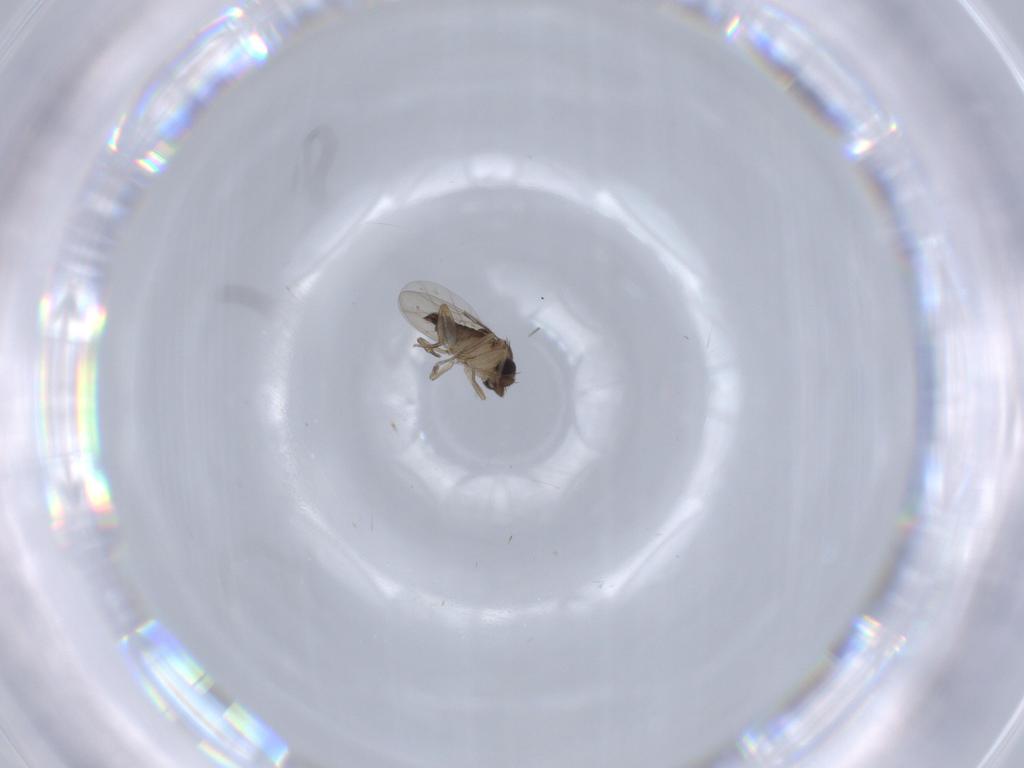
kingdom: Animalia
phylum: Arthropoda
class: Insecta
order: Diptera
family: Phoridae
